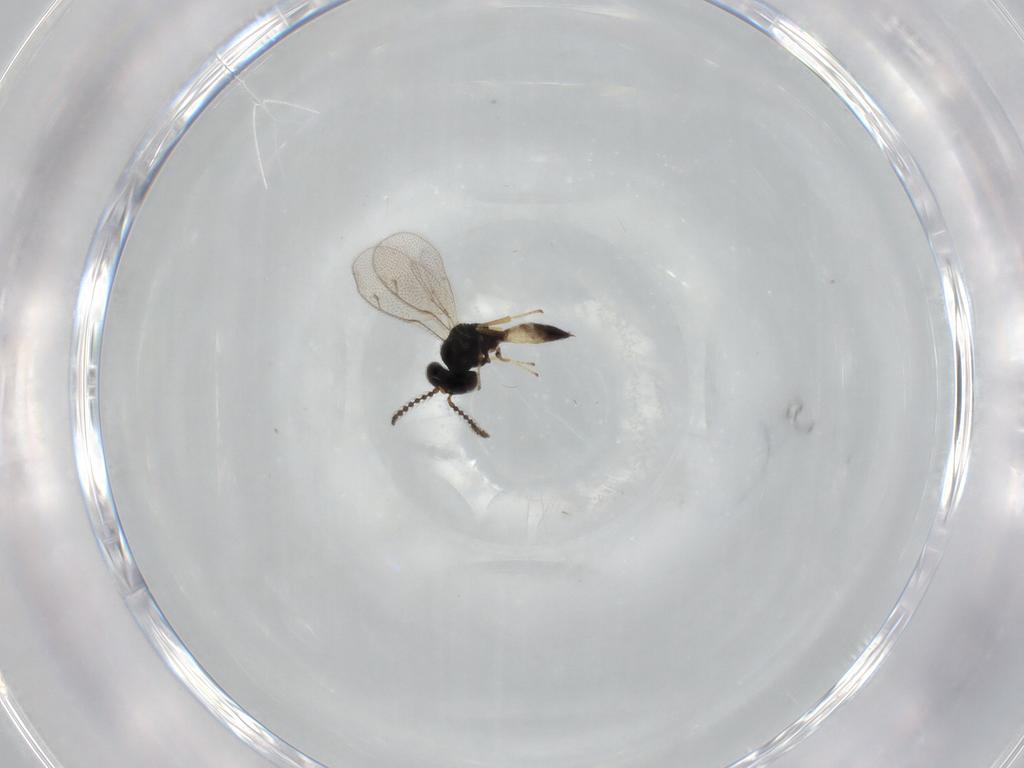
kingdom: Animalia
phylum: Arthropoda
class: Insecta
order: Hymenoptera
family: Pteromalidae
